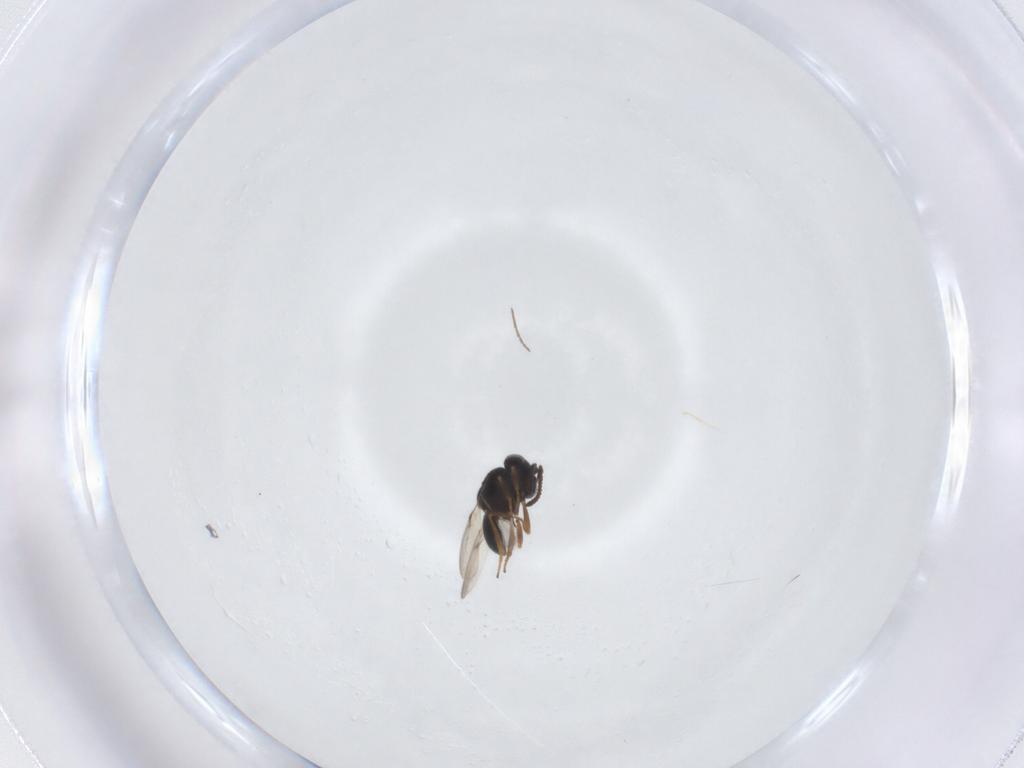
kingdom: Animalia
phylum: Arthropoda
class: Arachnida
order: Araneae
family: Pholcidae
